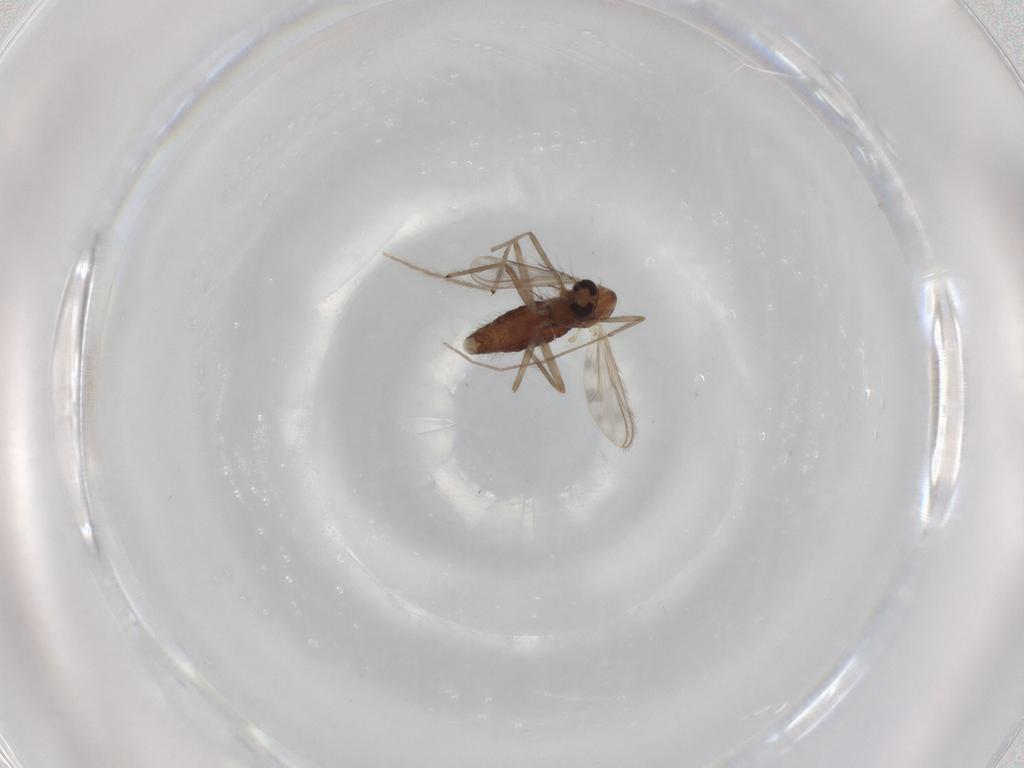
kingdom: Animalia
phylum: Arthropoda
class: Insecta
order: Diptera
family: Chironomidae
